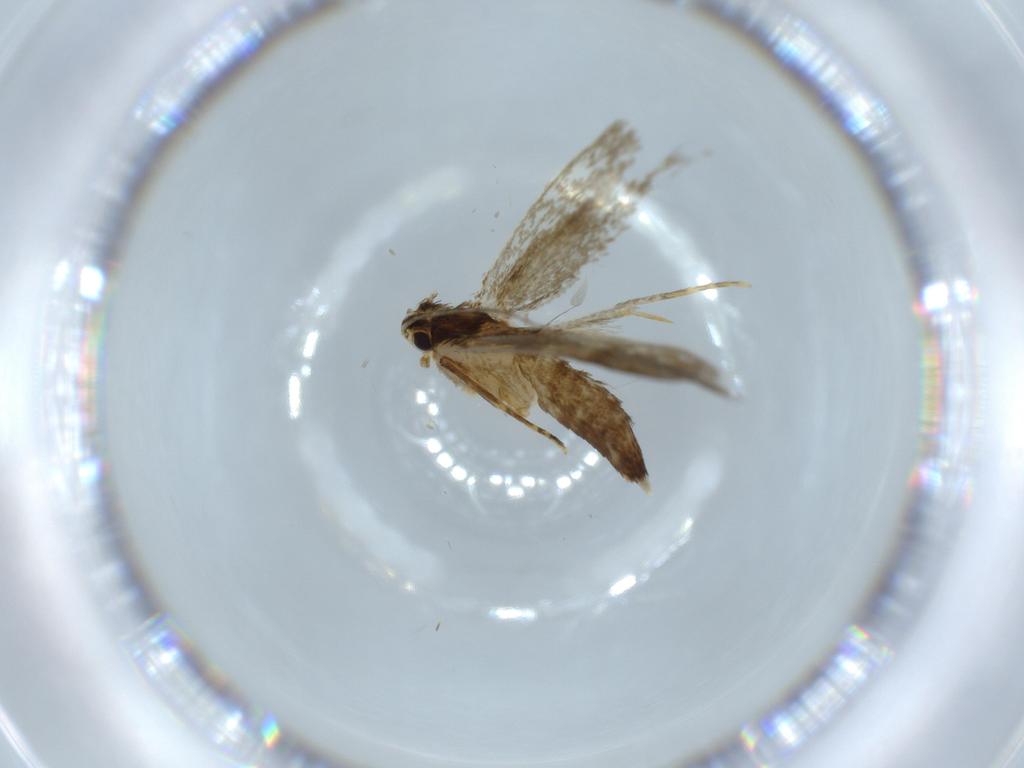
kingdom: Animalia
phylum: Arthropoda
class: Insecta
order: Lepidoptera
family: Tineidae
